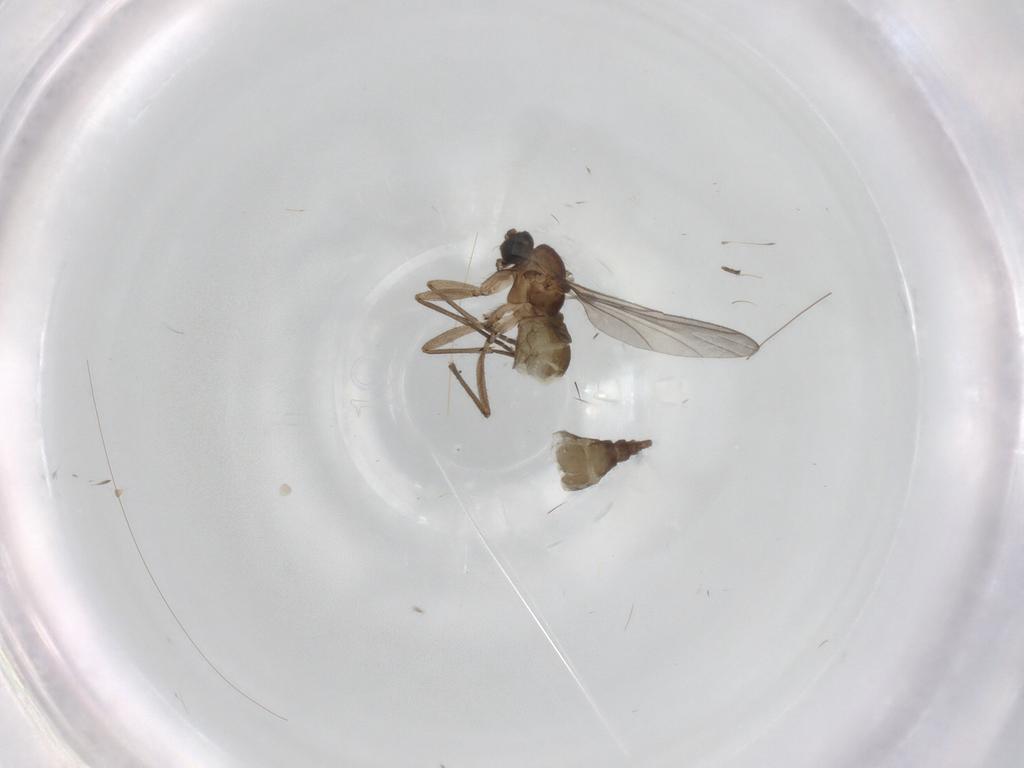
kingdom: Animalia
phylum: Arthropoda
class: Insecta
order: Diptera
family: Sciaridae
